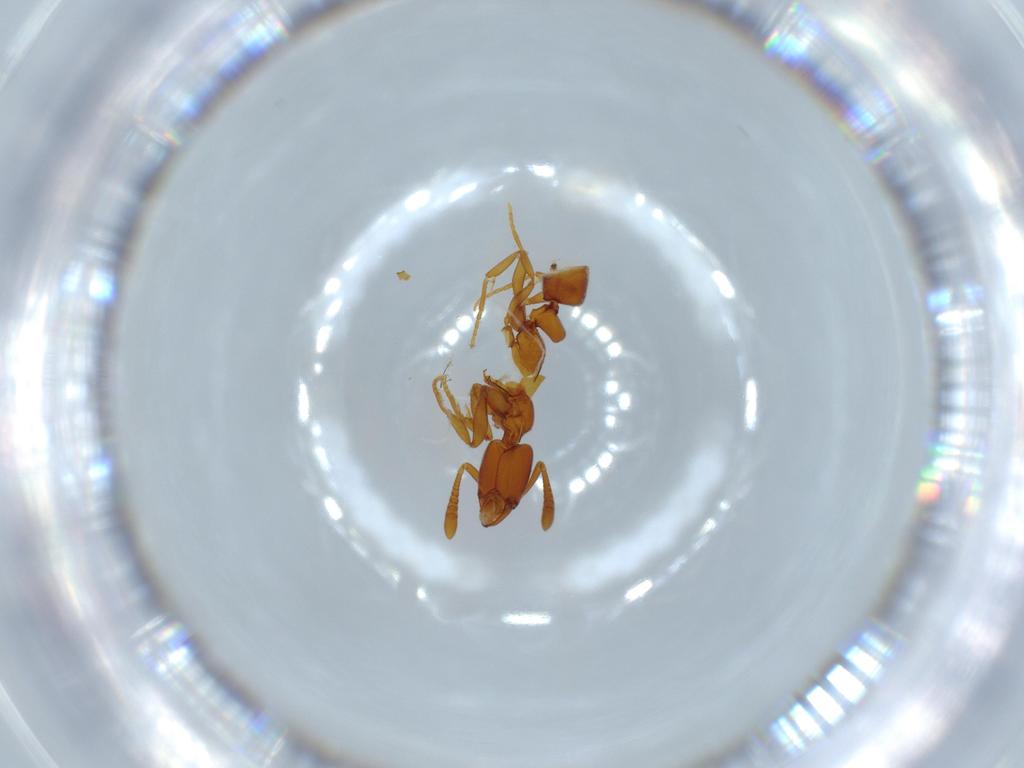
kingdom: Animalia
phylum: Arthropoda
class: Insecta
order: Hymenoptera
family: Formicidae
